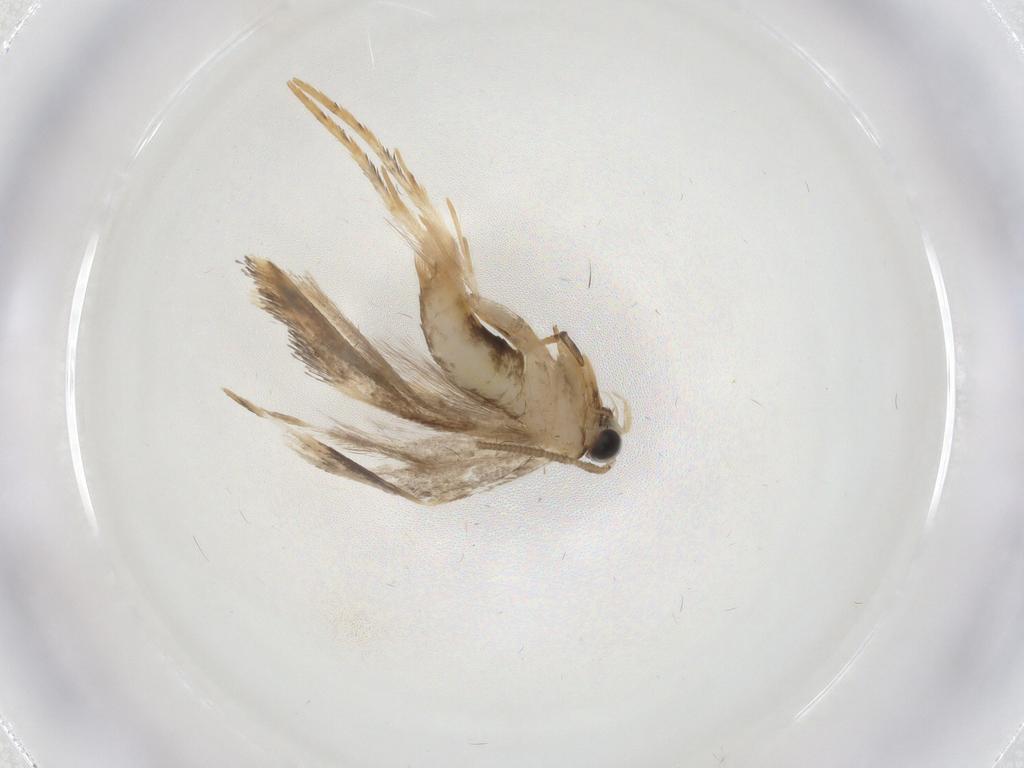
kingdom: Animalia
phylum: Arthropoda
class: Insecta
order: Lepidoptera
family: Bucculatricidae
